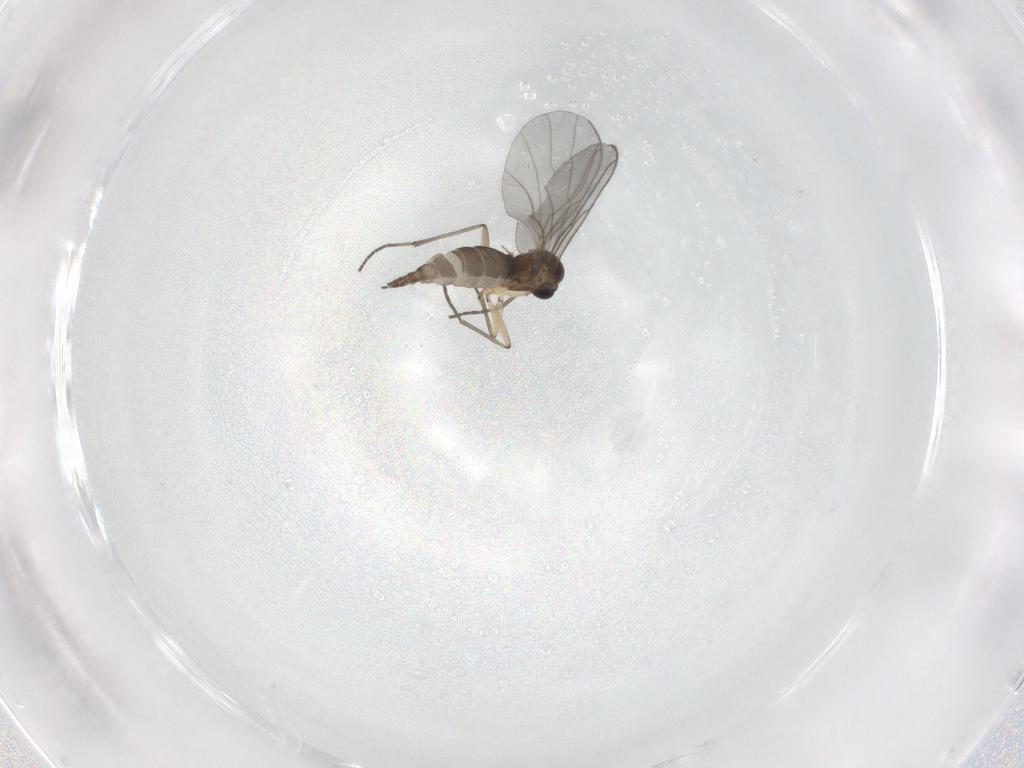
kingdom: Animalia
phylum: Arthropoda
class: Insecta
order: Diptera
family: Sciaridae
